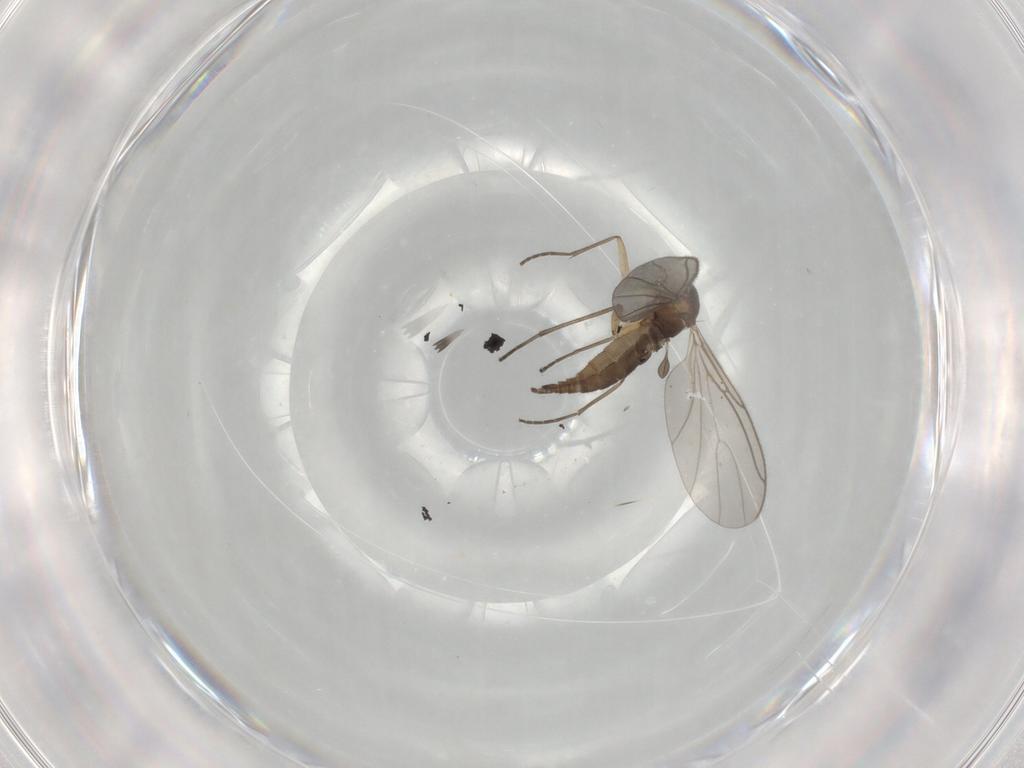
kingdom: Animalia
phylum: Arthropoda
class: Insecta
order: Diptera
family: Sciaridae
